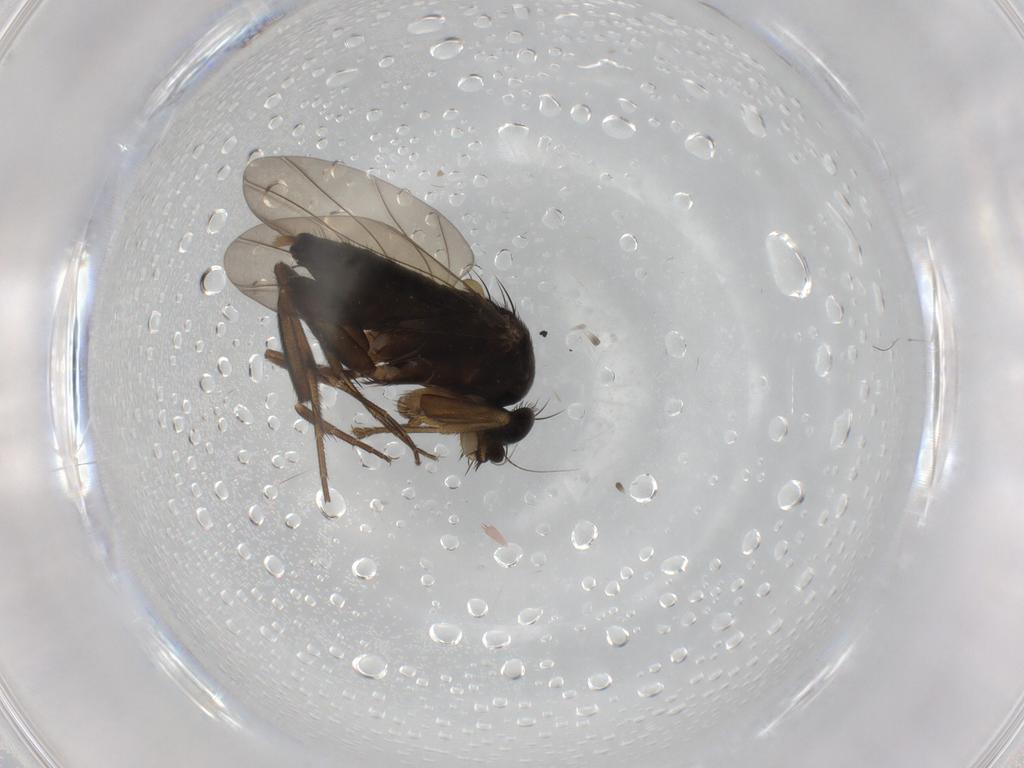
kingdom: Animalia
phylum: Arthropoda
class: Insecta
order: Diptera
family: Phoridae
